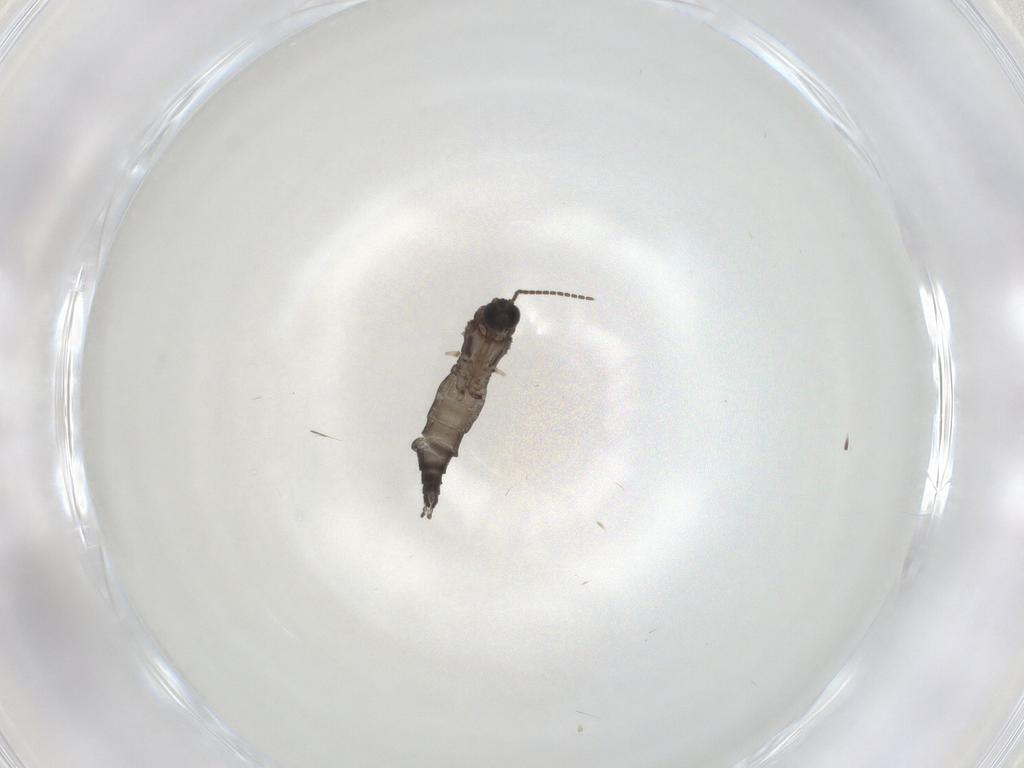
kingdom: Animalia
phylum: Arthropoda
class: Insecta
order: Diptera
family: Sciaridae
